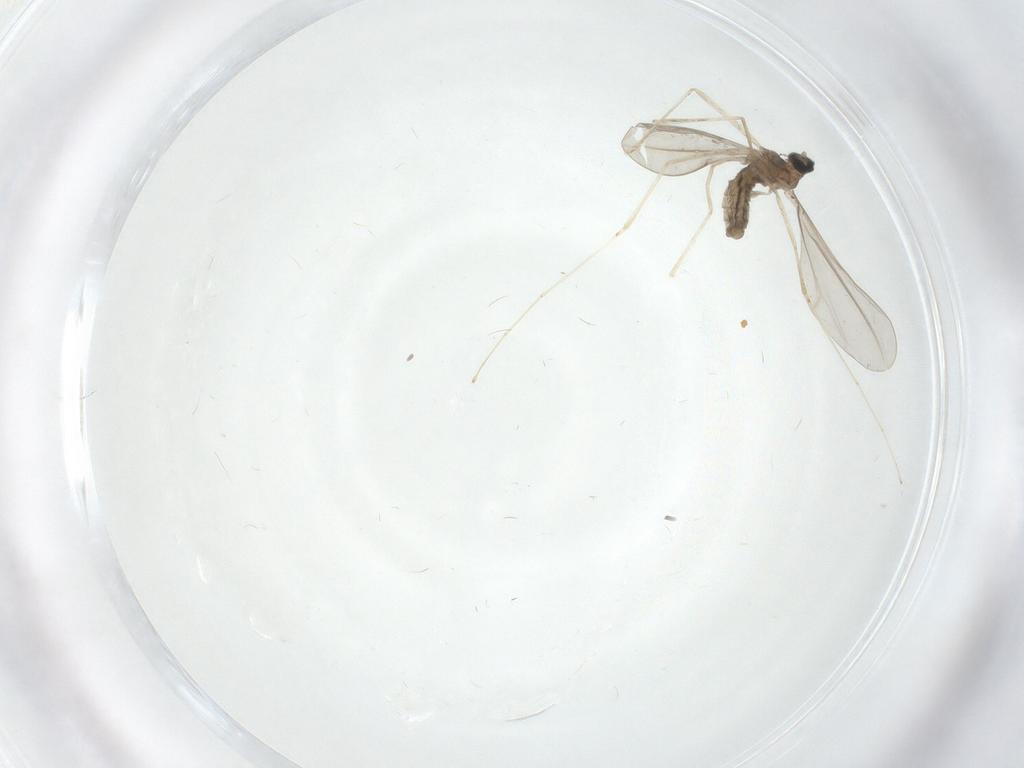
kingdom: Animalia
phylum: Arthropoda
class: Insecta
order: Diptera
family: Cecidomyiidae
